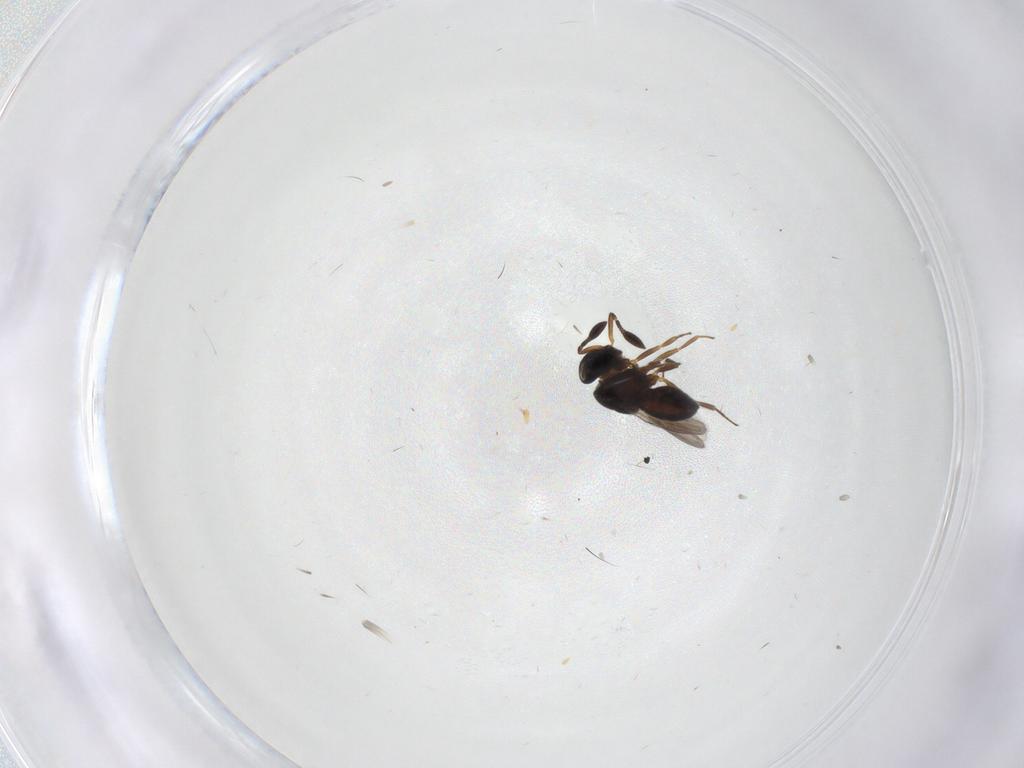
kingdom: Animalia
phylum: Arthropoda
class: Insecta
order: Hymenoptera
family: Scelionidae
